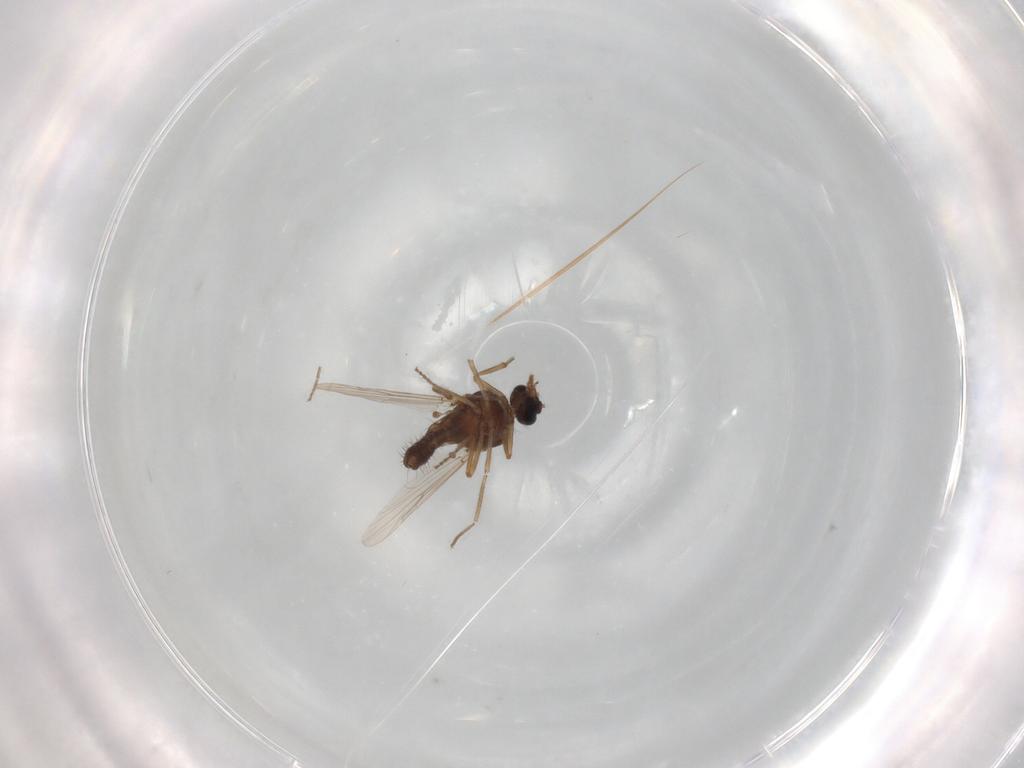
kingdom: Animalia
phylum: Arthropoda
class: Insecta
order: Diptera
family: Ceratopogonidae
